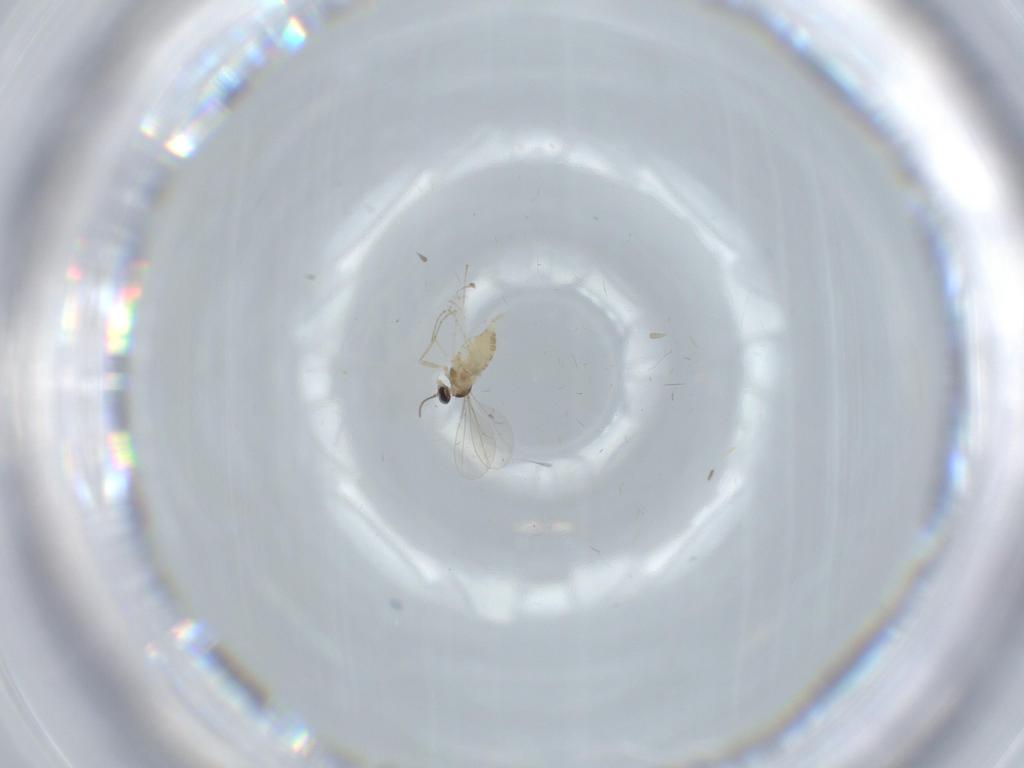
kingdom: Animalia
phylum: Arthropoda
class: Insecta
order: Diptera
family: Cecidomyiidae
